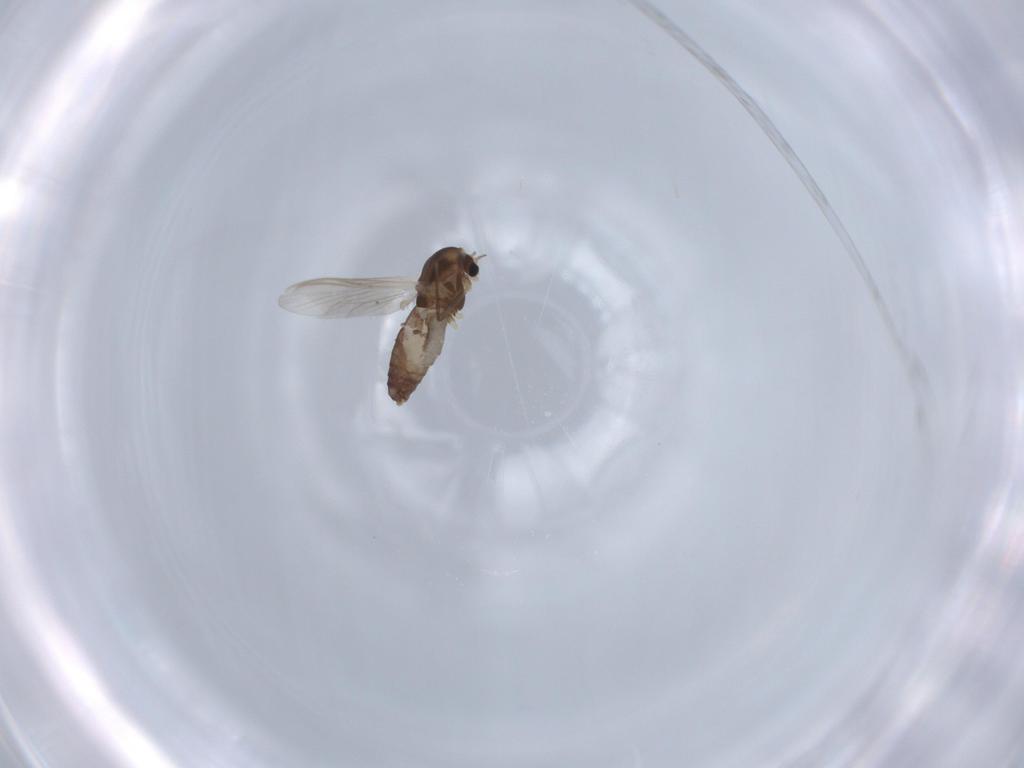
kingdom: Animalia
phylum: Arthropoda
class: Insecta
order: Diptera
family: Chironomidae
